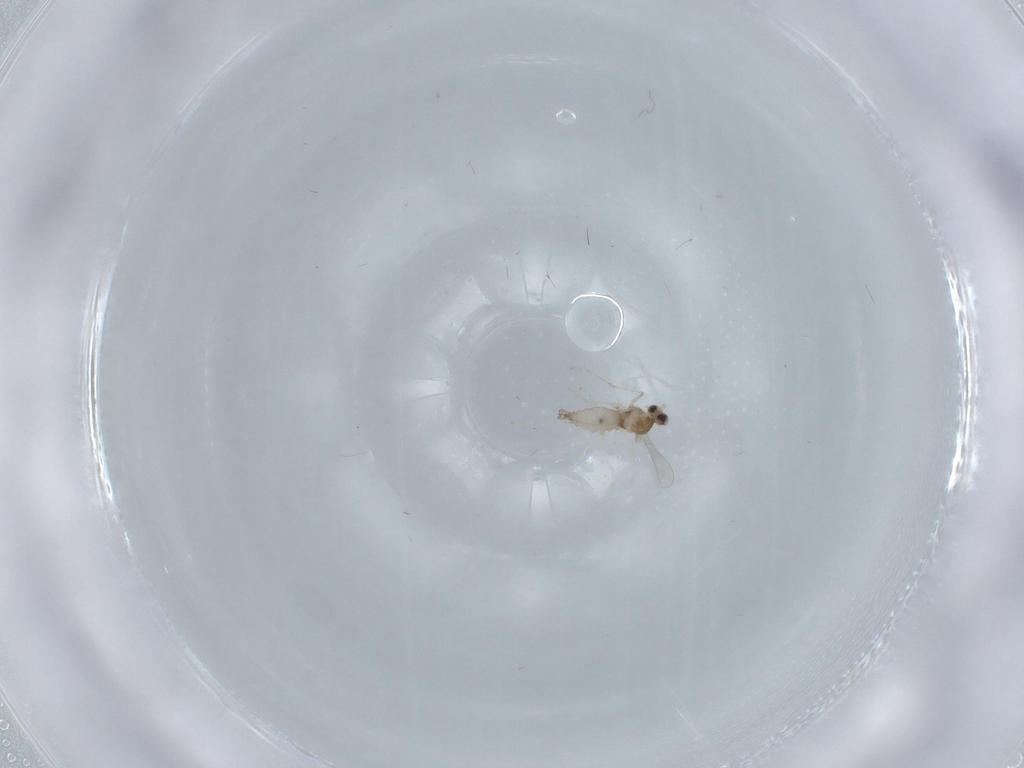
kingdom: Animalia
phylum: Arthropoda
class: Insecta
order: Diptera
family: Cecidomyiidae
